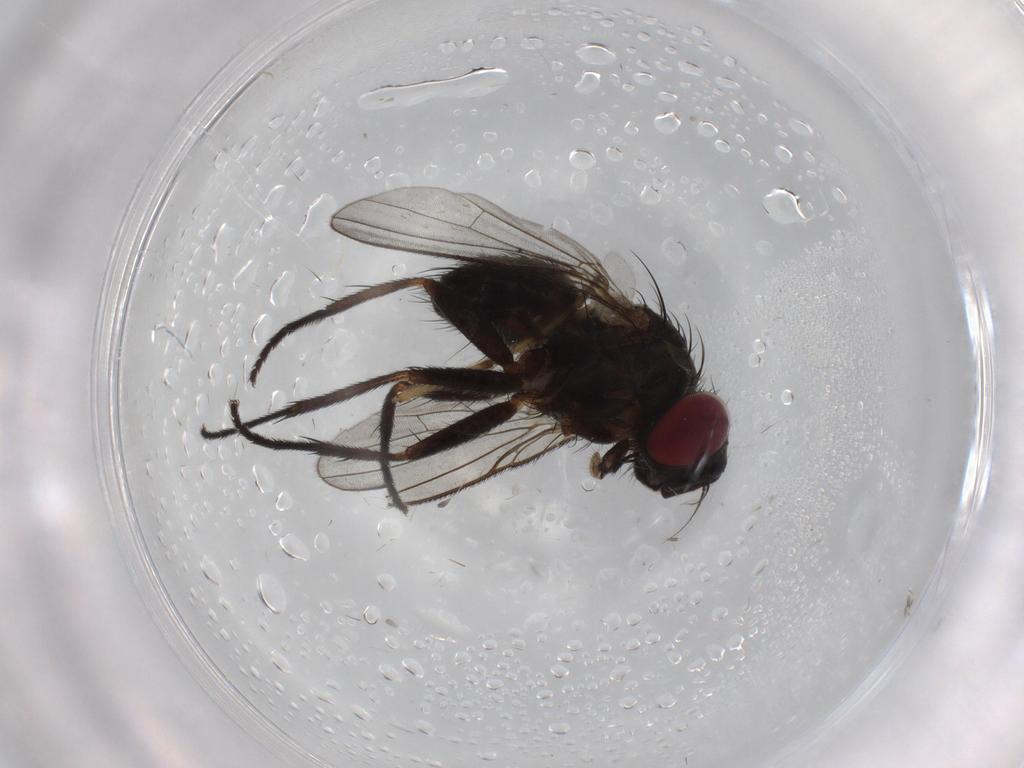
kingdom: Animalia
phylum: Arthropoda
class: Insecta
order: Diptera
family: Muscidae
